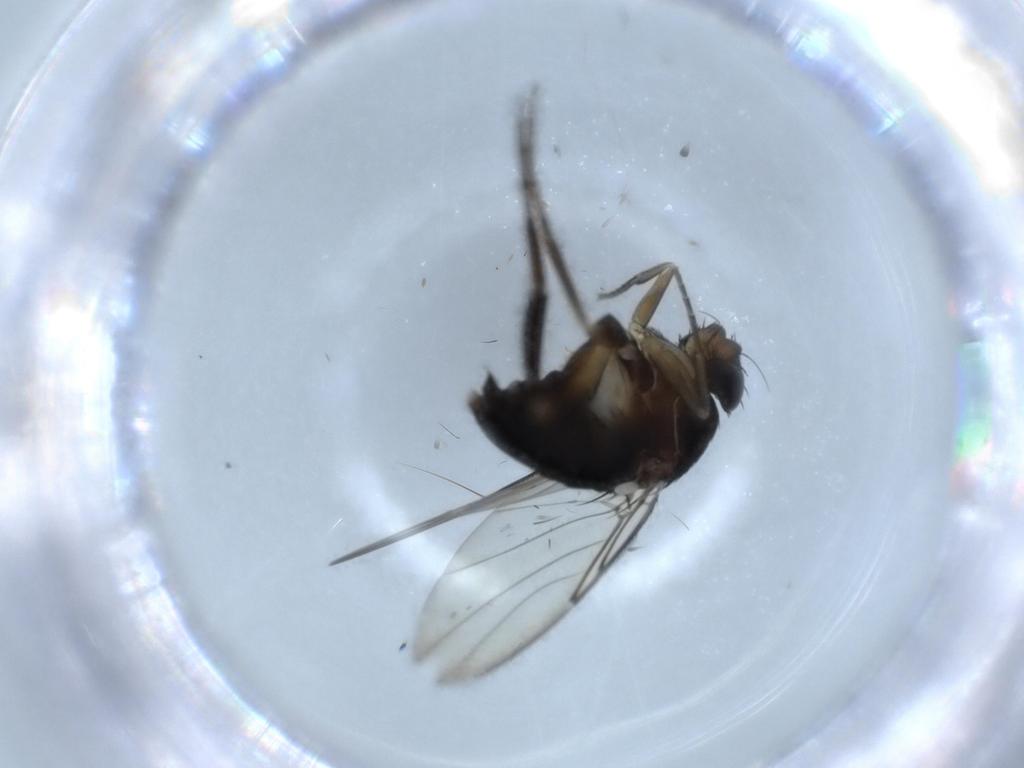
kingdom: Animalia
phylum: Arthropoda
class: Insecta
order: Diptera
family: Phoridae
